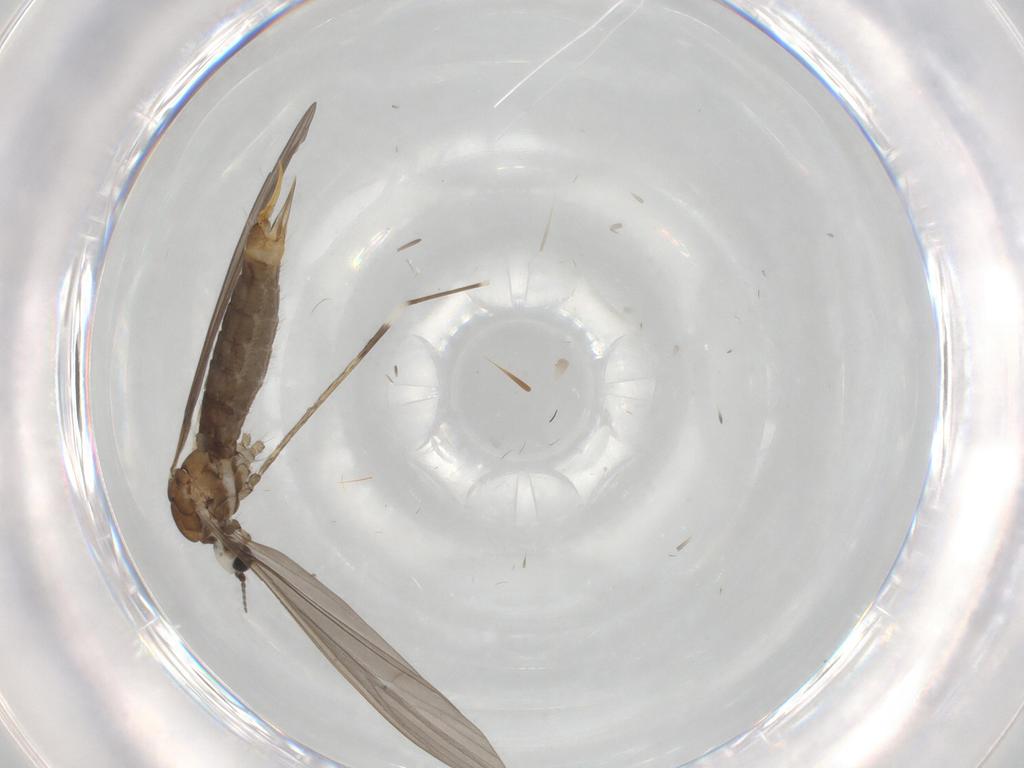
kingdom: Animalia
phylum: Arthropoda
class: Insecta
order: Diptera
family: Limoniidae
